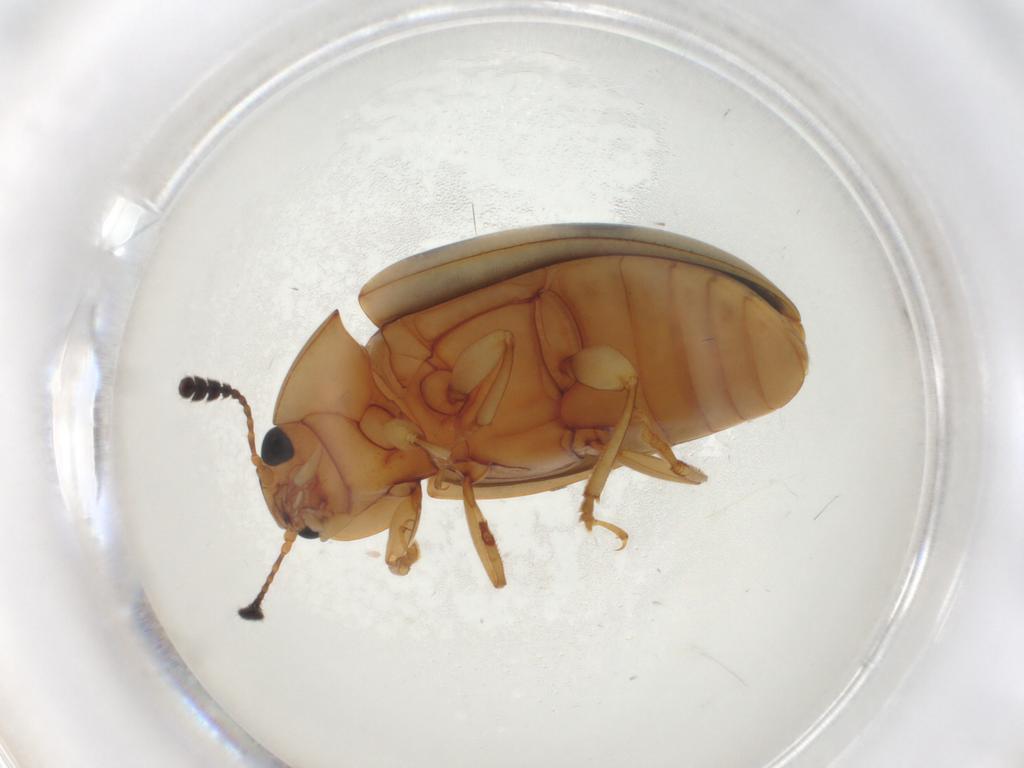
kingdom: Animalia
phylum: Arthropoda
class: Insecta
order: Coleoptera
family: Erotylidae
